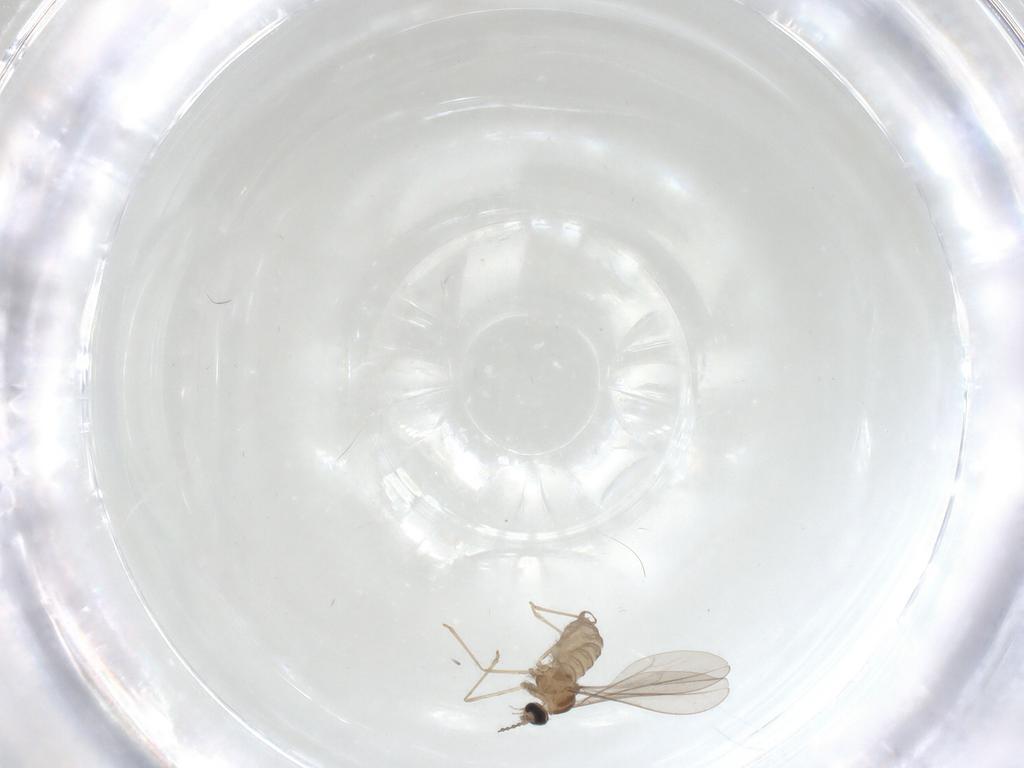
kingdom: Animalia
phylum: Arthropoda
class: Insecta
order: Diptera
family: Cecidomyiidae
